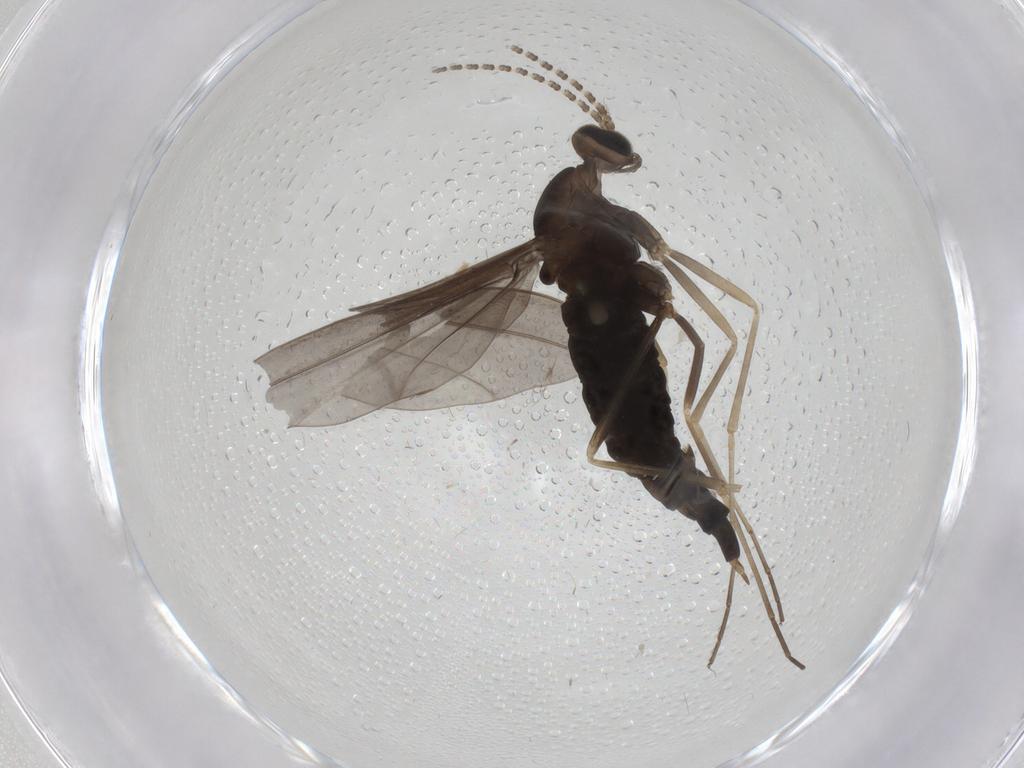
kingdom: Animalia
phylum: Arthropoda
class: Insecta
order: Diptera
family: Cecidomyiidae
